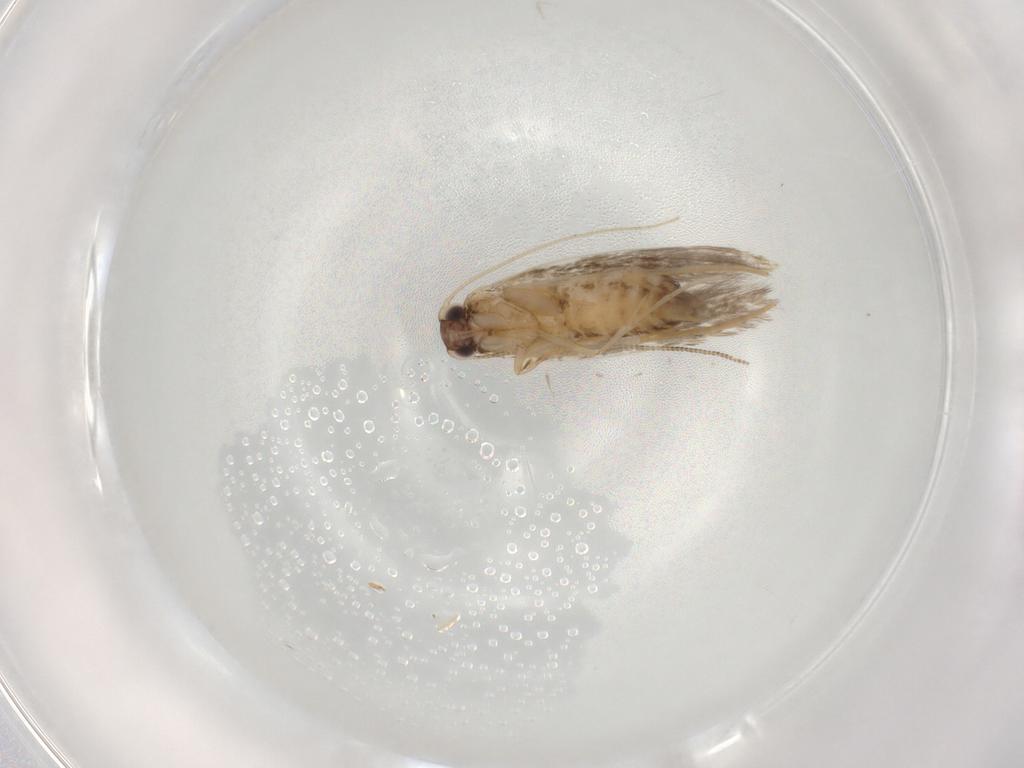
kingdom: Animalia
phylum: Arthropoda
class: Insecta
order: Lepidoptera
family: Tineidae
